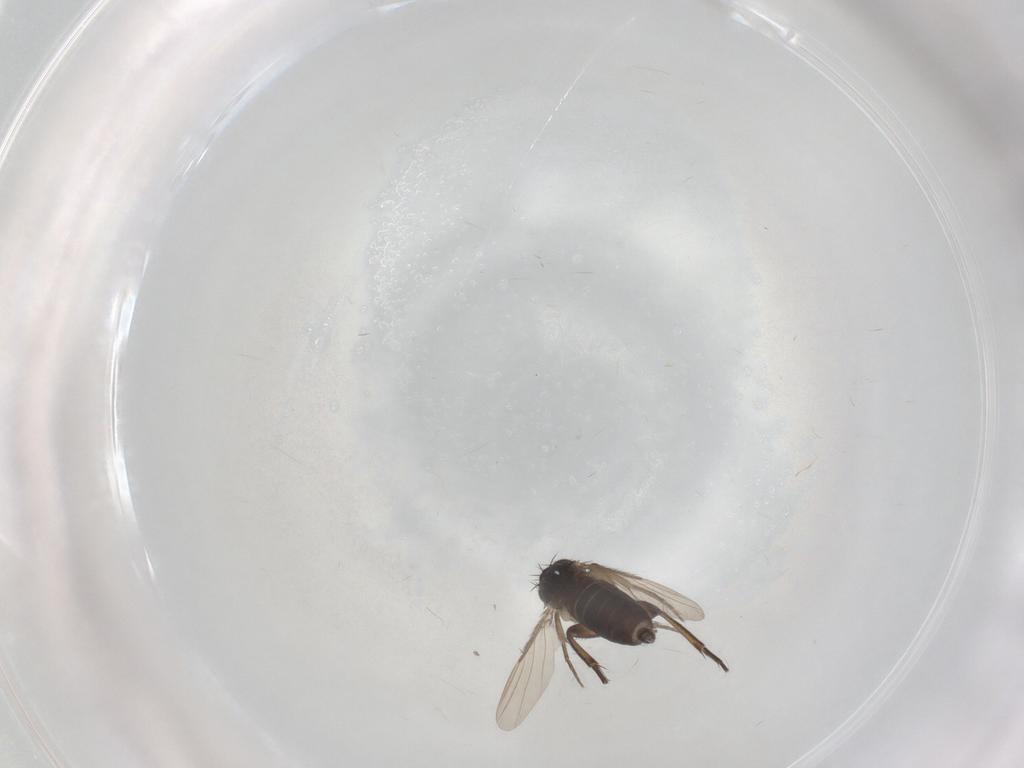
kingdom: Animalia
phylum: Arthropoda
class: Insecta
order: Diptera
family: Phoridae
